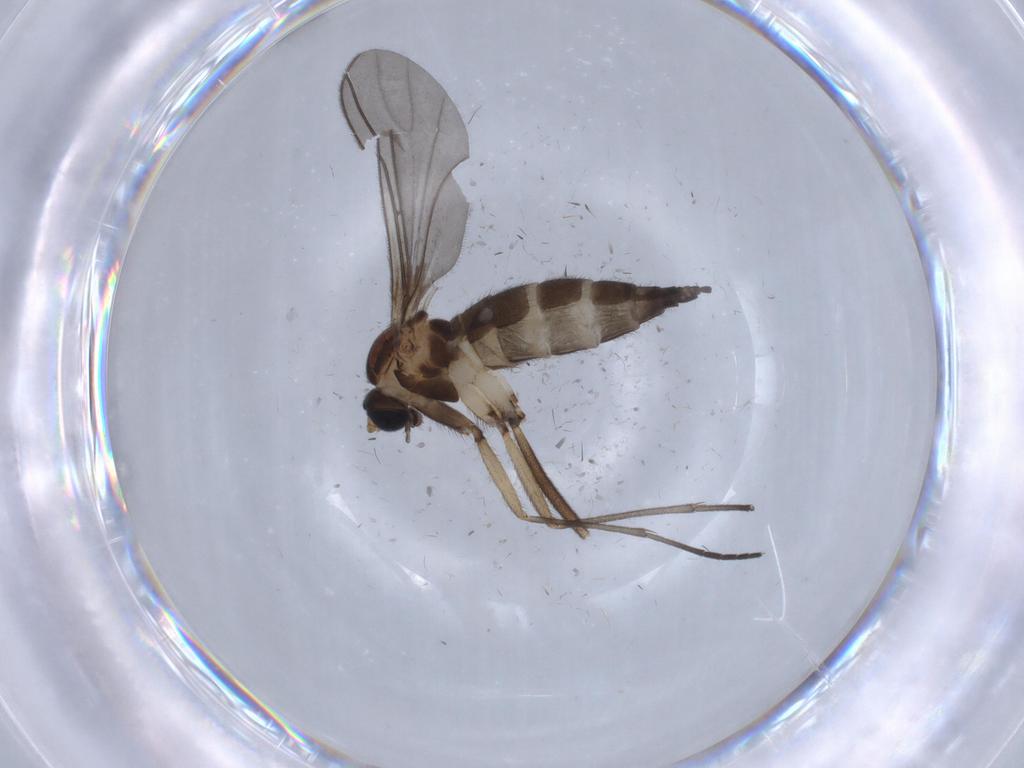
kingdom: Animalia
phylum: Arthropoda
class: Insecta
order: Diptera
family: Sciaridae
